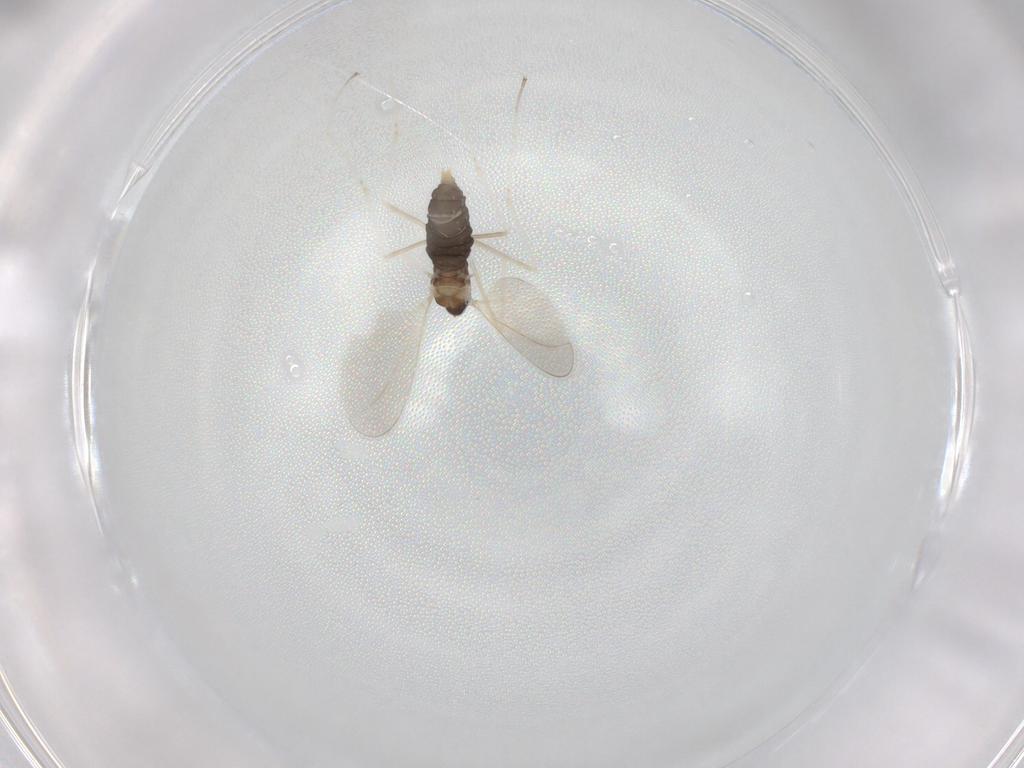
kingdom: Animalia
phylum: Arthropoda
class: Insecta
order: Diptera
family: Cecidomyiidae
